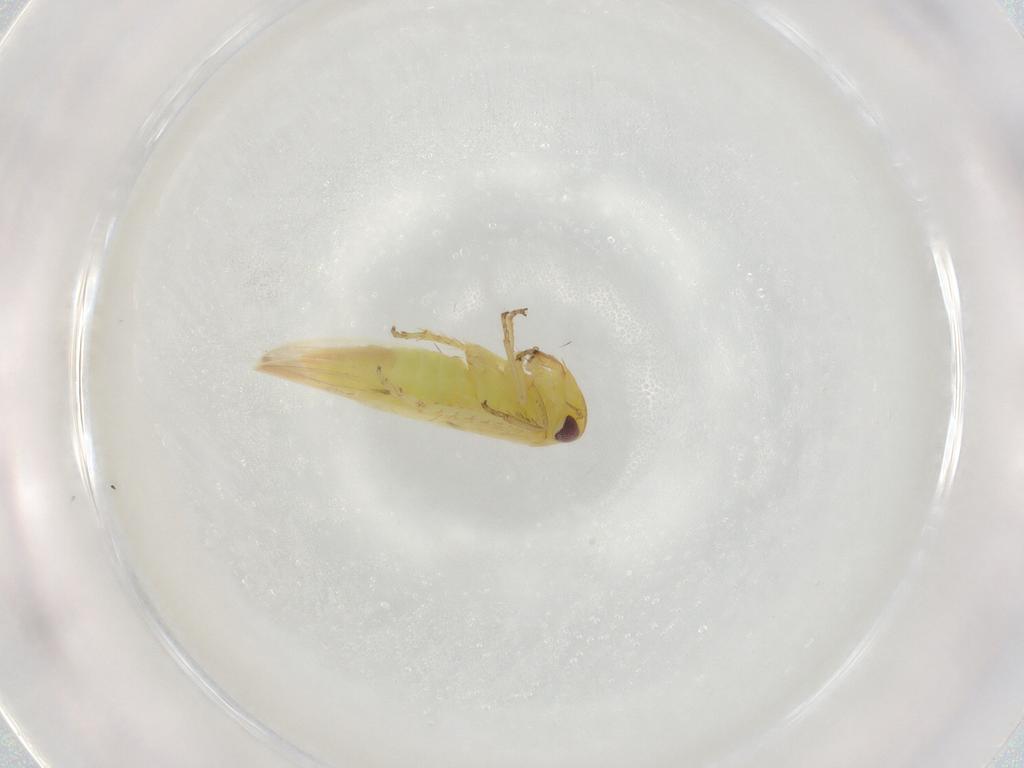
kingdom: Animalia
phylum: Arthropoda
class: Insecta
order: Hemiptera
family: Cicadellidae
